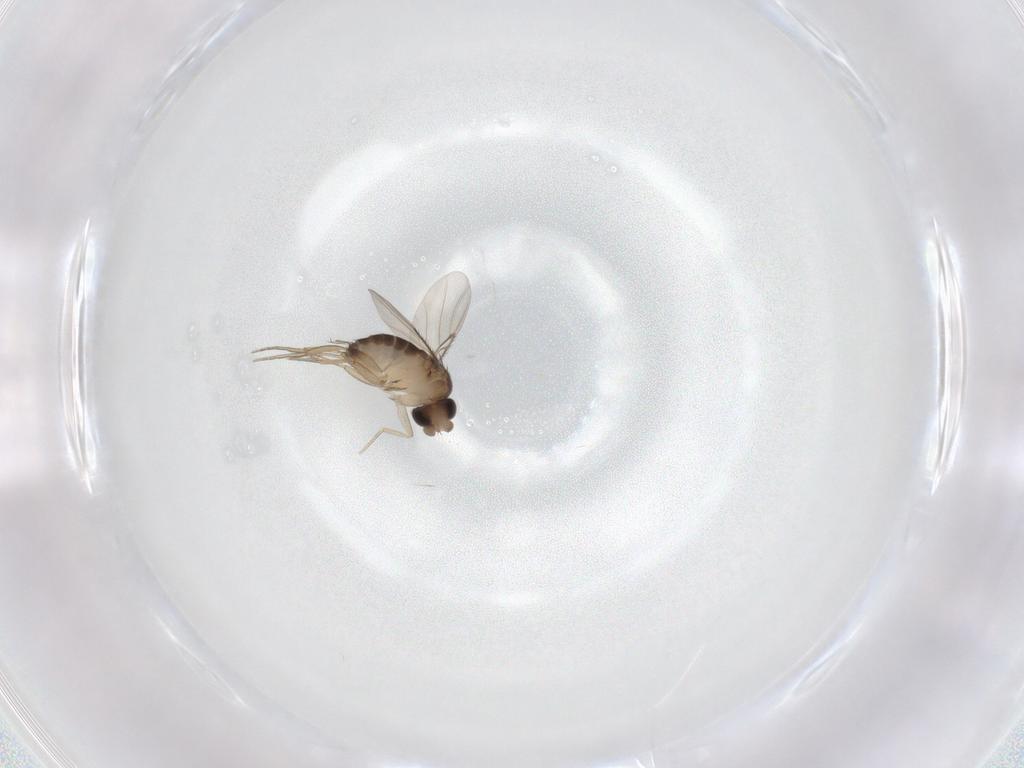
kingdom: Animalia
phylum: Arthropoda
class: Insecta
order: Diptera
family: Phoridae
